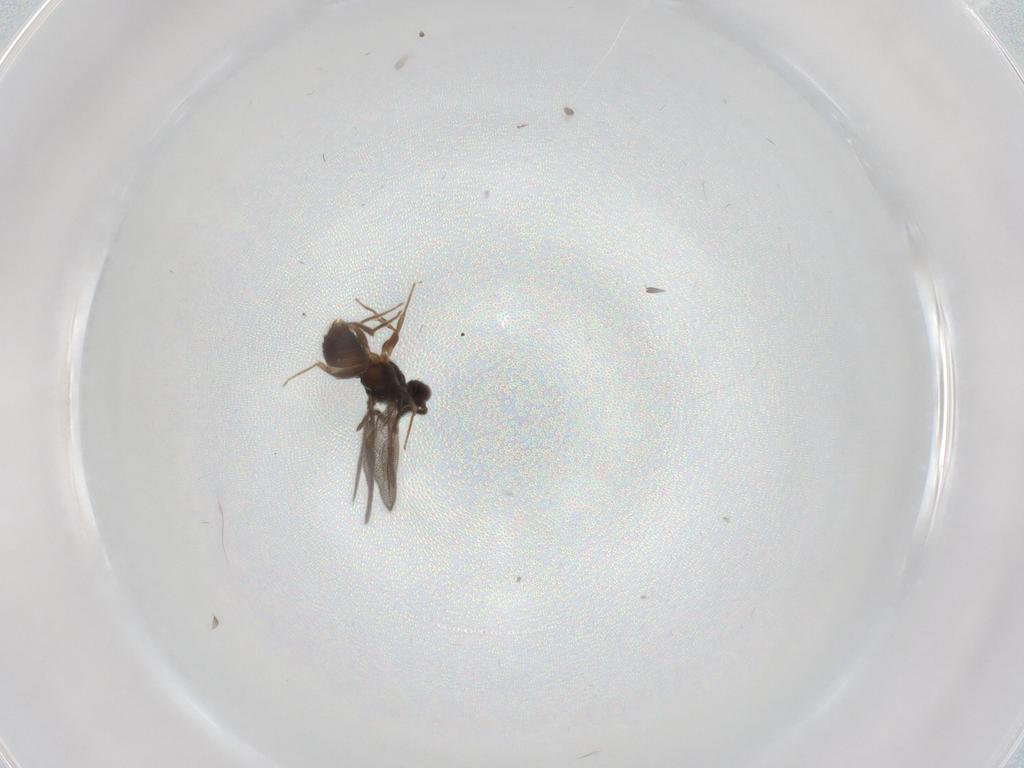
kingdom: Animalia
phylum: Arthropoda
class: Insecta
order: Hymenoptera
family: Bethylidae
